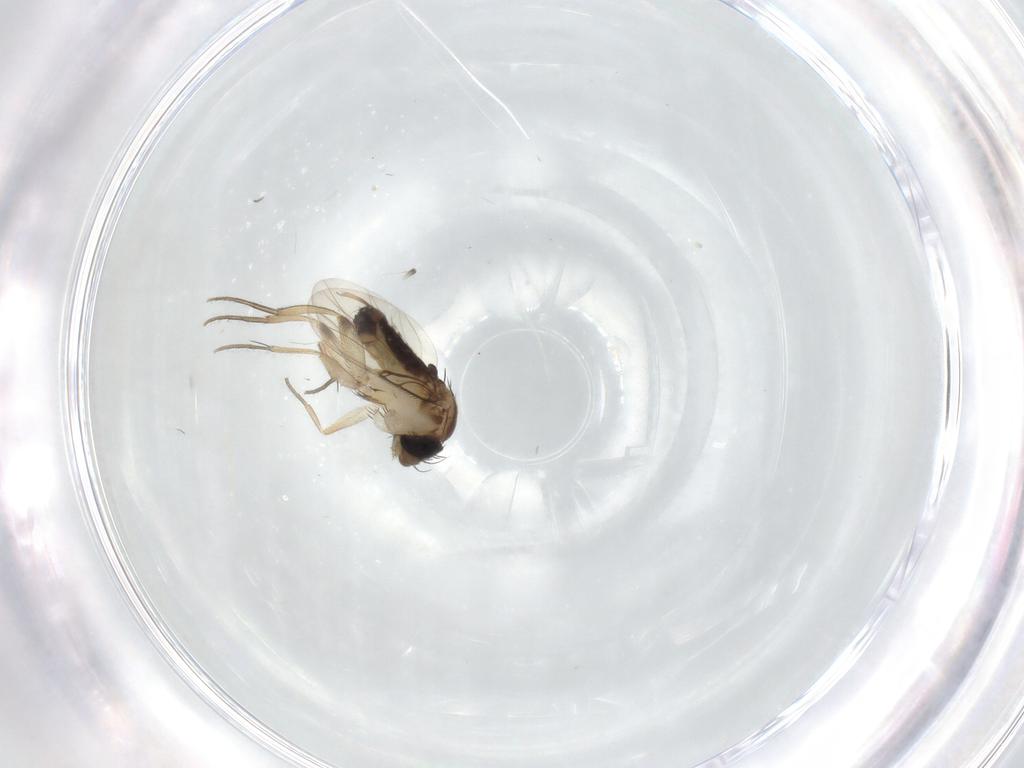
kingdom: Animalia
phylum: Arthropoda
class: Insecta
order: Diptera
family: Phoridae
